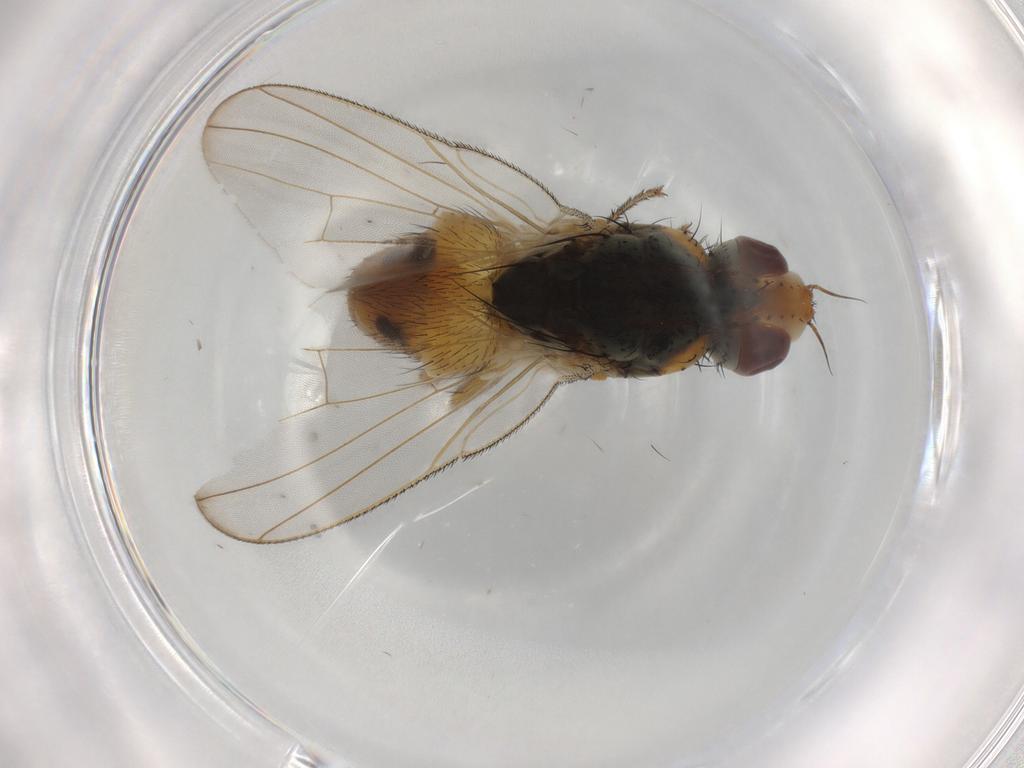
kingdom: Animalia
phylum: Arthropoda
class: Insecta
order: Diptera
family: Muscidae
